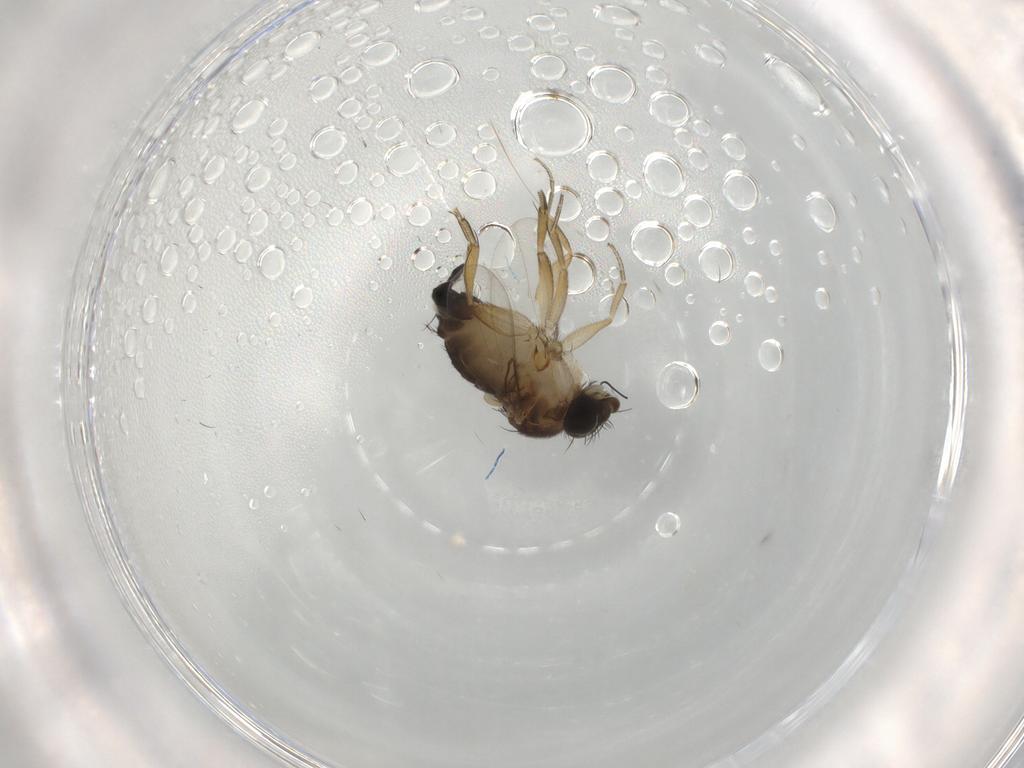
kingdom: Animalia
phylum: Arthropoda
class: Insecta
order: Diptera
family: Phoridae
